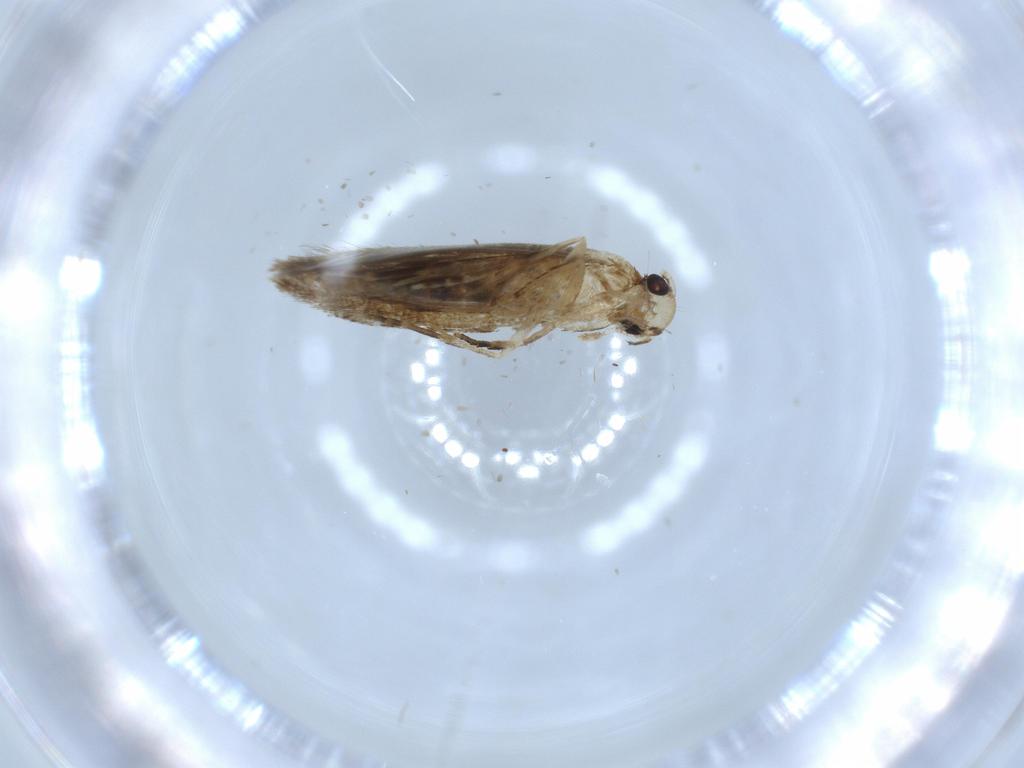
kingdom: Animalia
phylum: Arthropoda
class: Insecta
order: Lepidoptera
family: Tineidae
